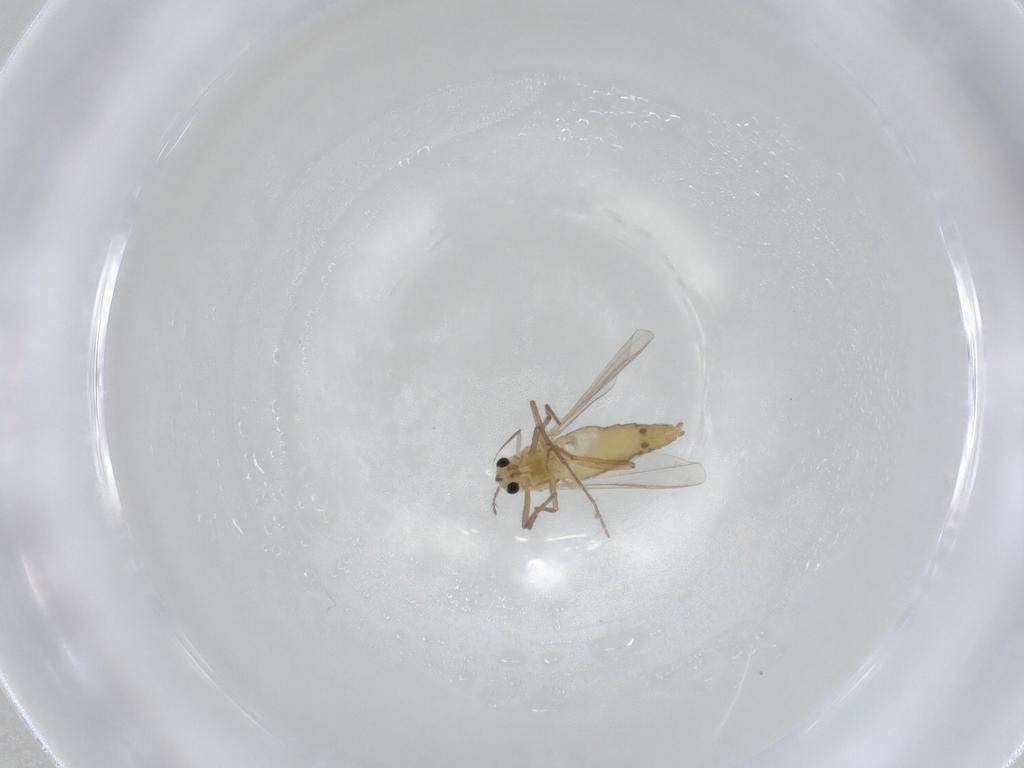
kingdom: Animalia
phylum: Arthropoda
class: Insecta
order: Diptera
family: Chironomidae
